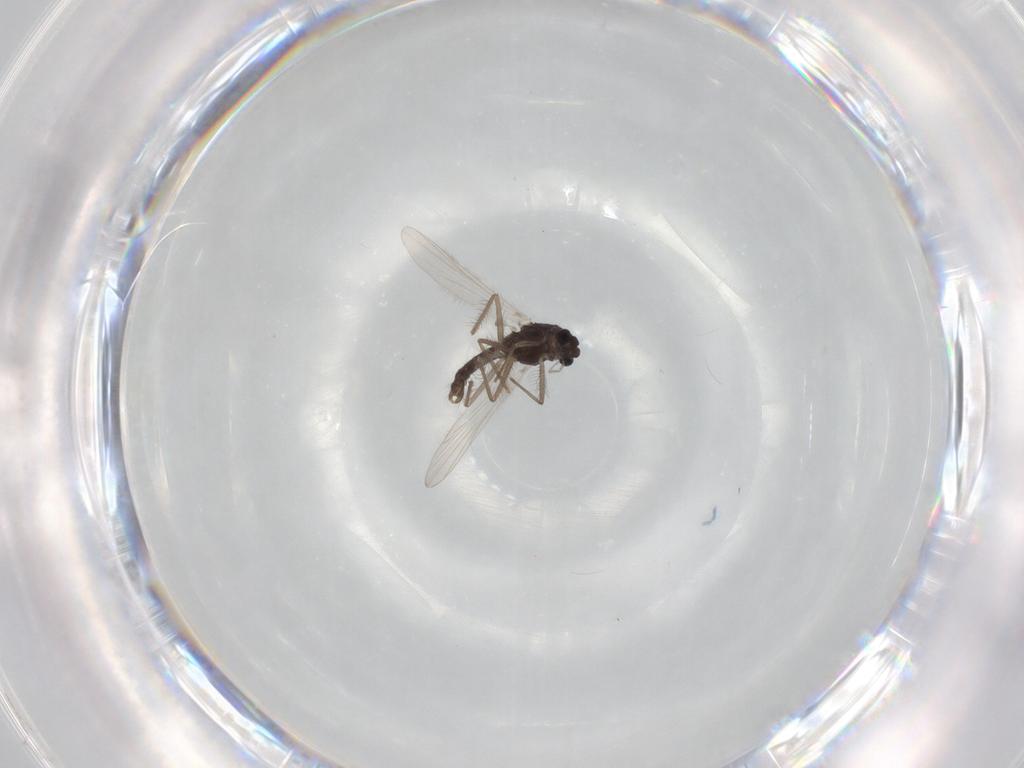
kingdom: Animalia
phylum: Arthropoda
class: Insecta
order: Diptera
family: Chironomidae
